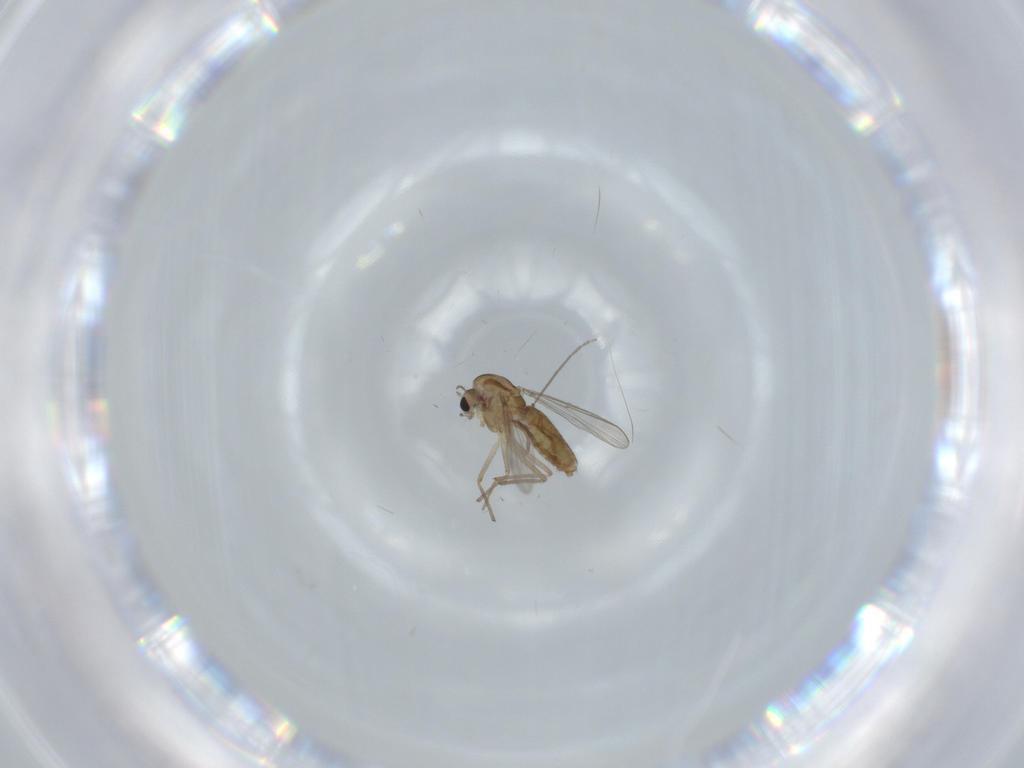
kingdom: Animalia
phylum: Arthropoda
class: Insecta
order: Diptera
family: Chironomidae
